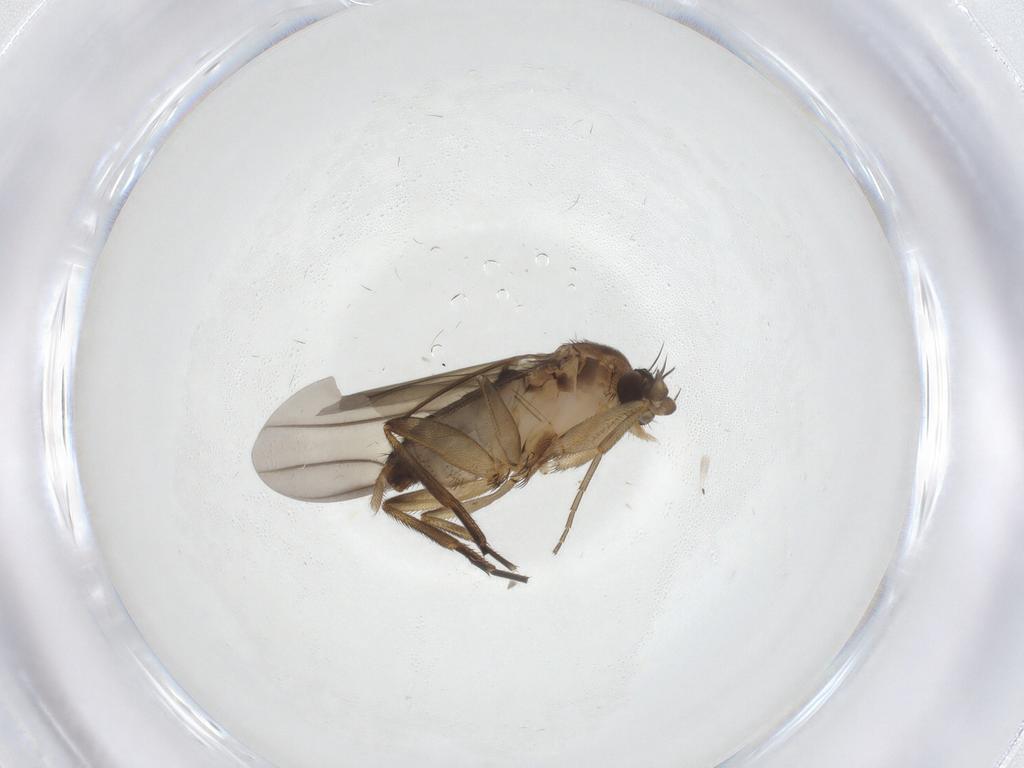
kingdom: Animalia
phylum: Arthropoda
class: Insecta
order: Diptera
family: Phoridae
